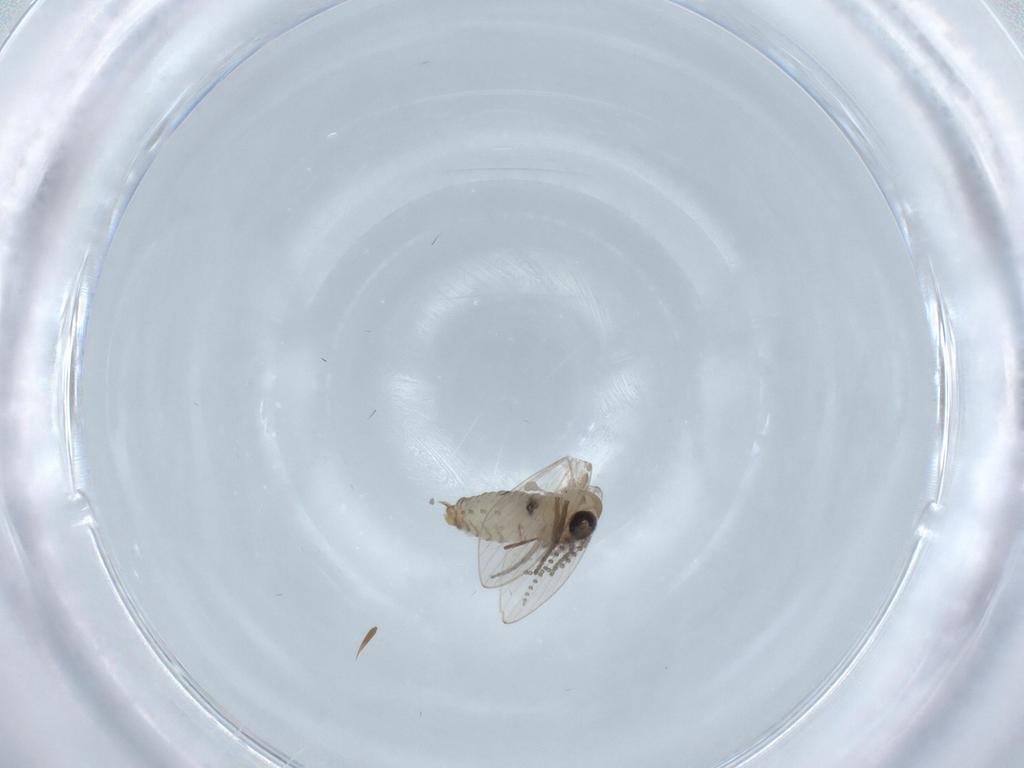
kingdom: Animalia
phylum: Arthropoda
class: Insecta
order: Diptera
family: Psychodidae
